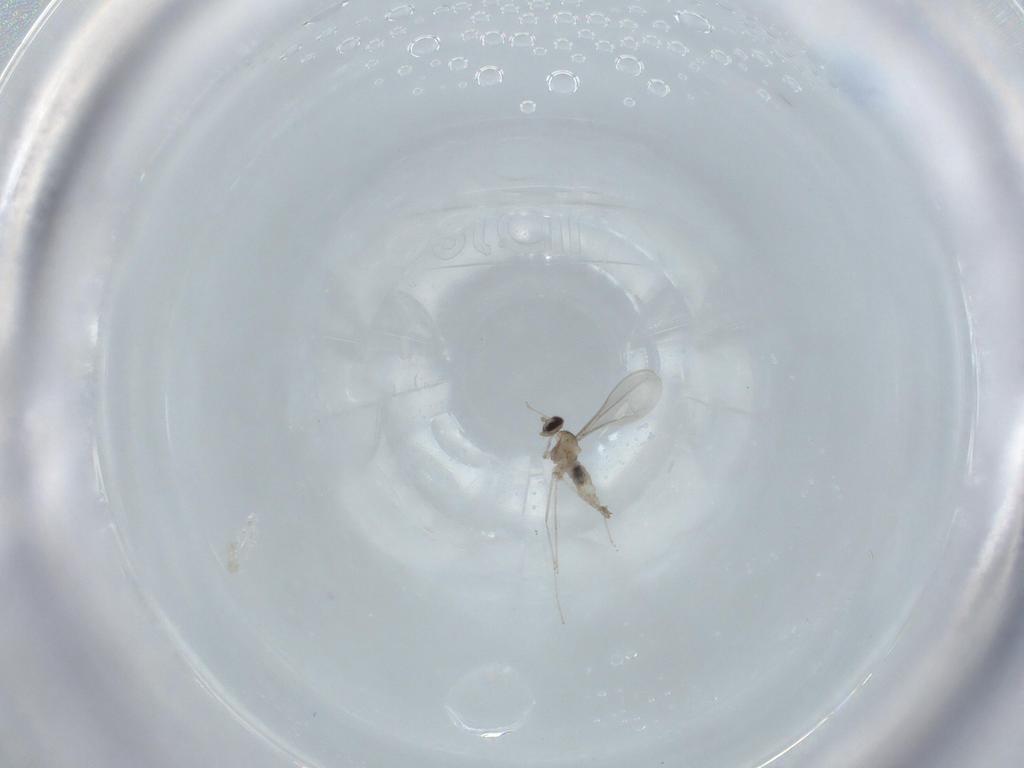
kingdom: Animalia
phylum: Arthropoda
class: Insecta
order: Diptera
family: Cecidomyiidae
